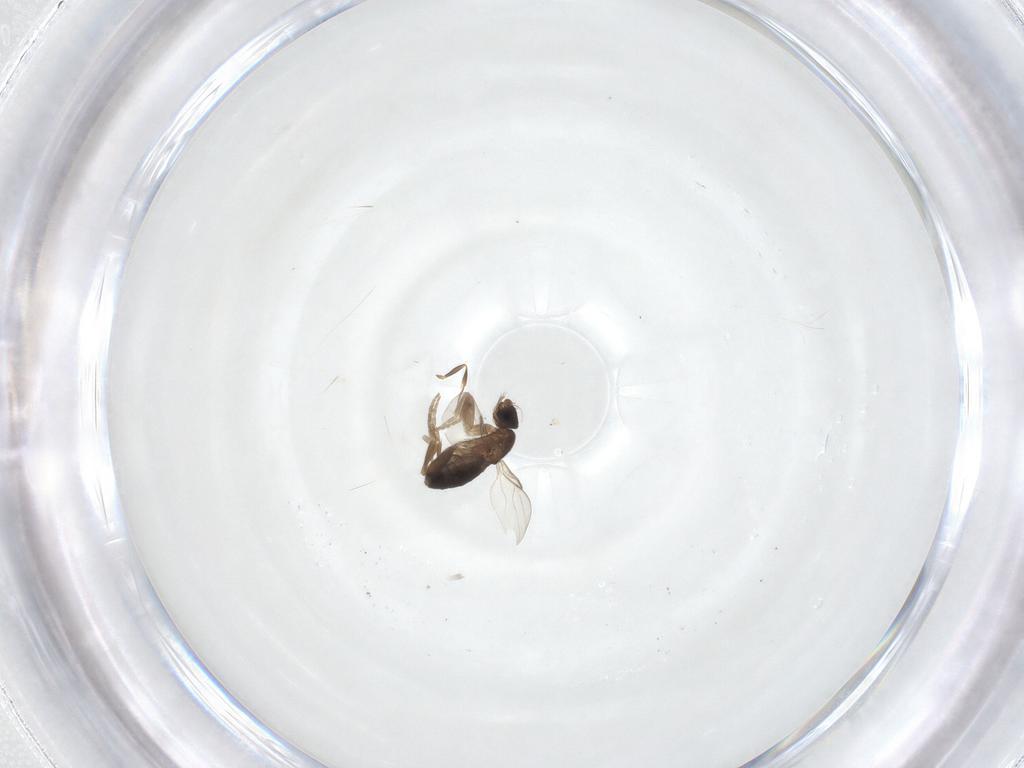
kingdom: Animalia
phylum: Arthropoda
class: Insecta
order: Diptera
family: Phoridae
